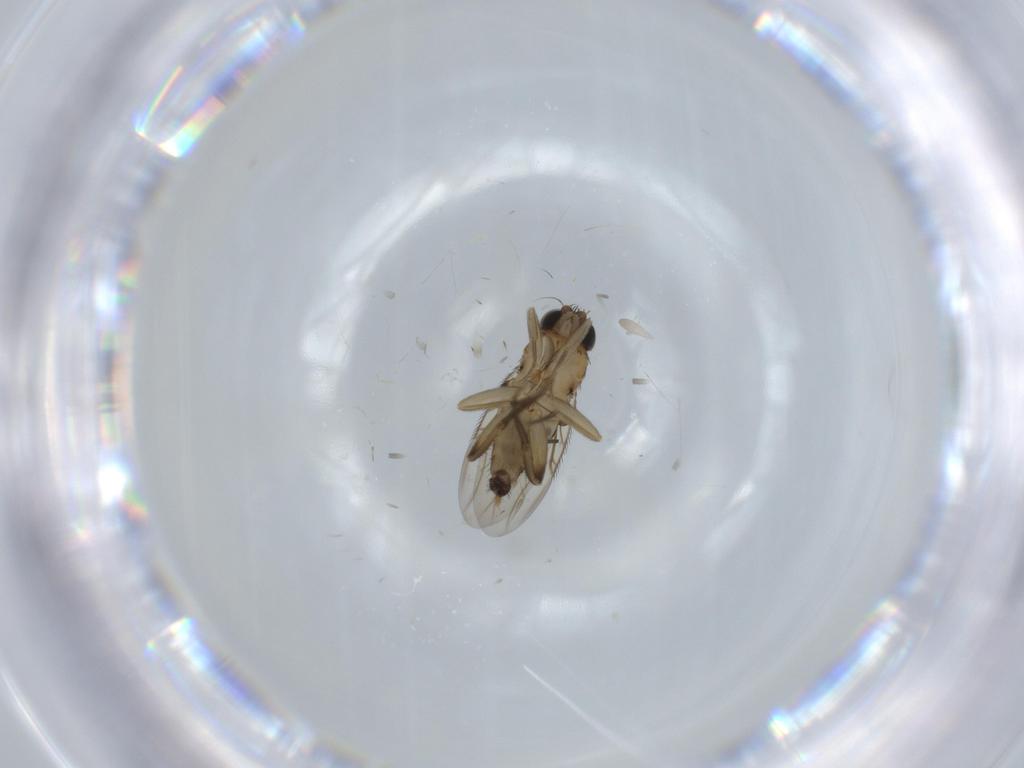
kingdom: Animalia
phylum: Arthropoda
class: Insecta
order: Diptera
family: Phoridae
